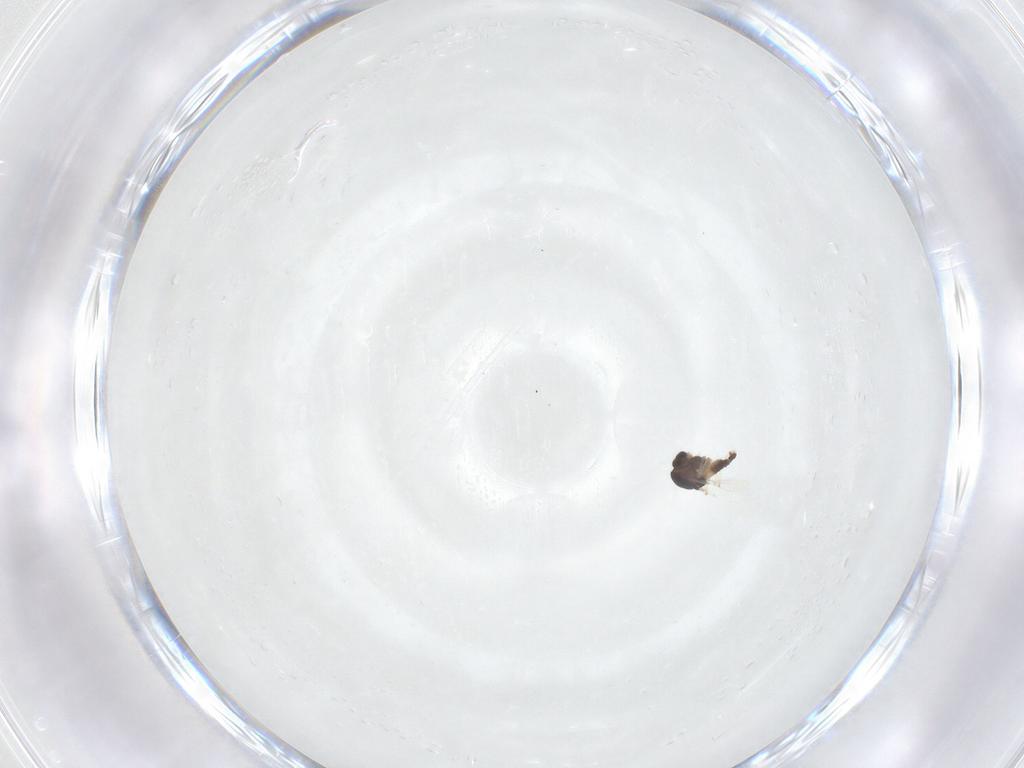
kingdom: Animalia
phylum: Arthropoda
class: Insecta
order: Diptera
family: Chironomidae
